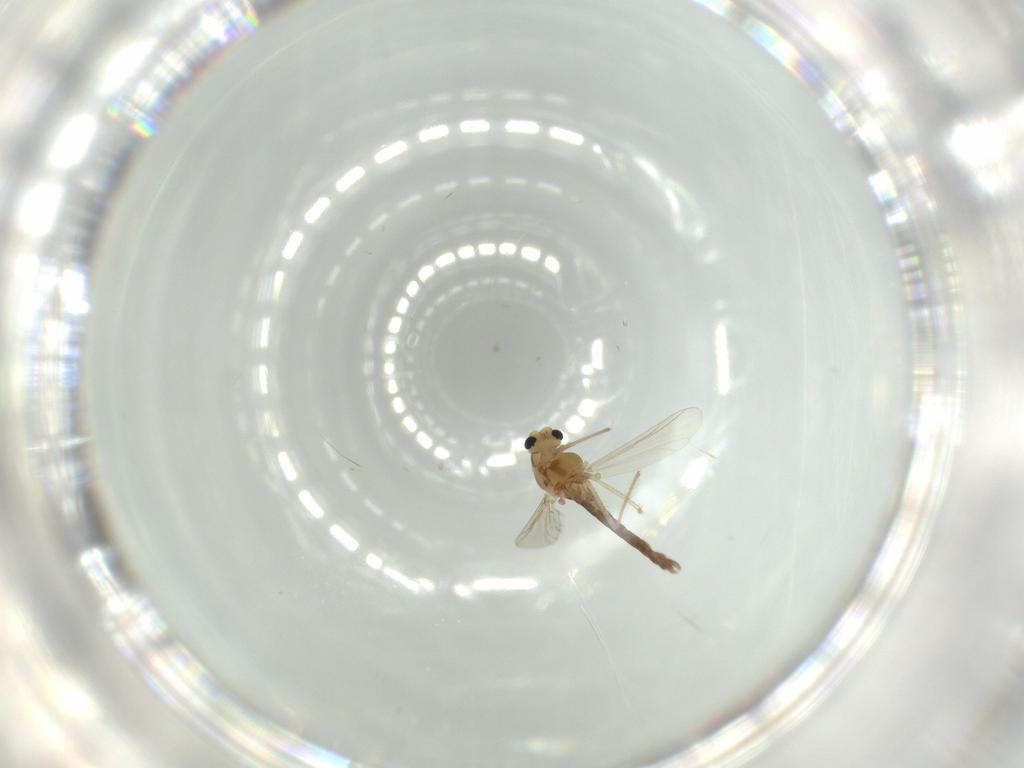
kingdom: Animalia
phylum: Arthropoda
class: Insecta
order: Diptera
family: Chironomidae
